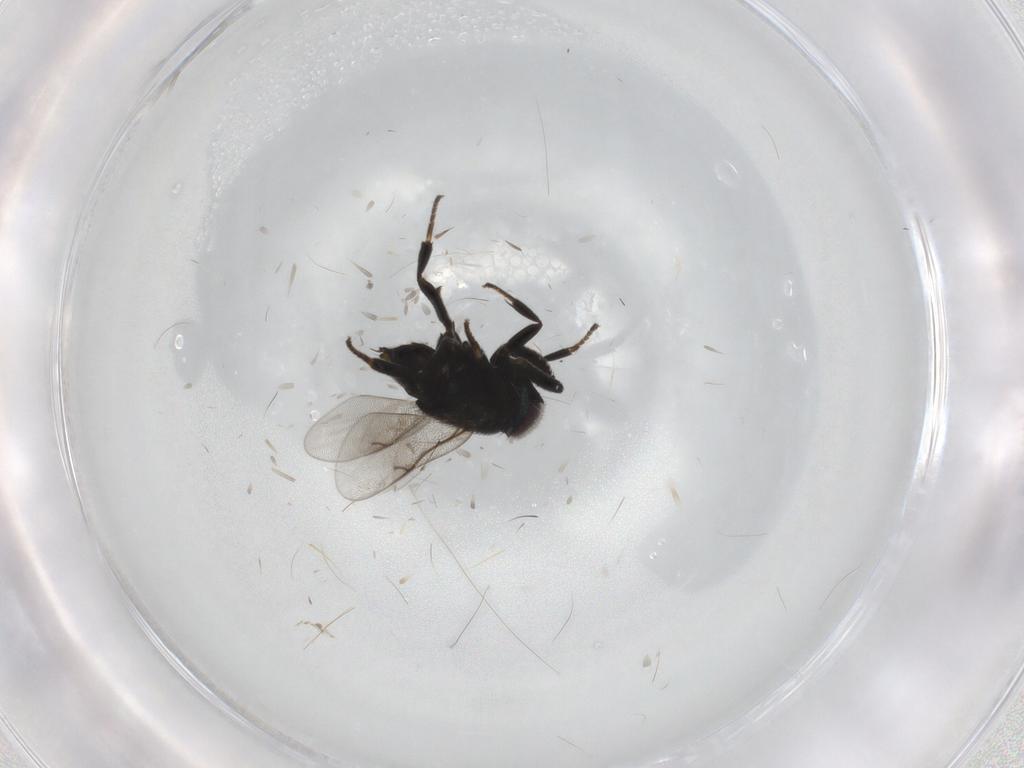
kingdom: Animalia
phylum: Arthropoda
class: Insecta
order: Hymenoptera
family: Encyrtidae
